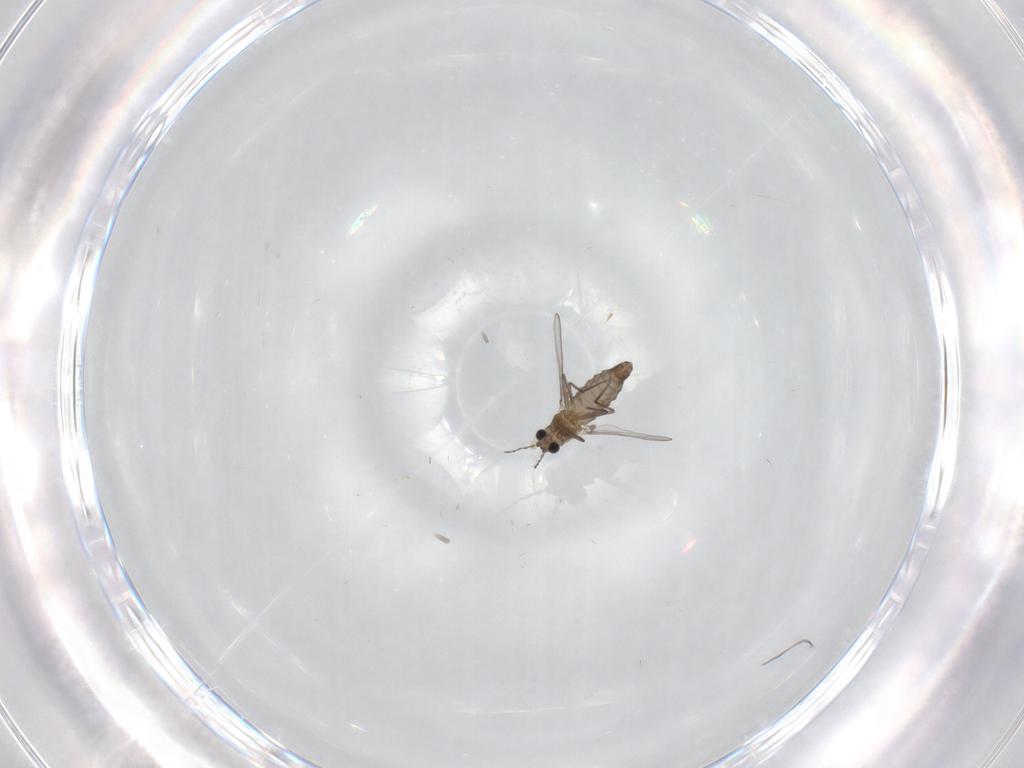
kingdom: Animalia
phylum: Arthropoda
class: Insecta
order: Diptera
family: Chironomidae
